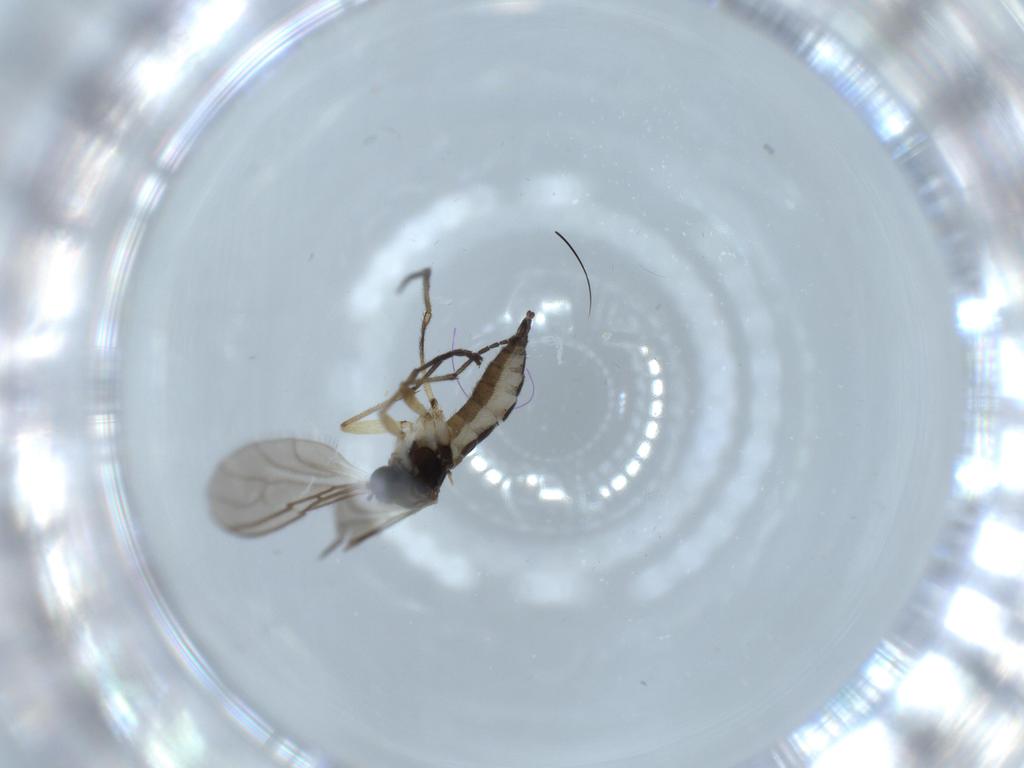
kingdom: Animalia
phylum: Arthropoda
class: Insecta
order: Diptera
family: Sciaridae
